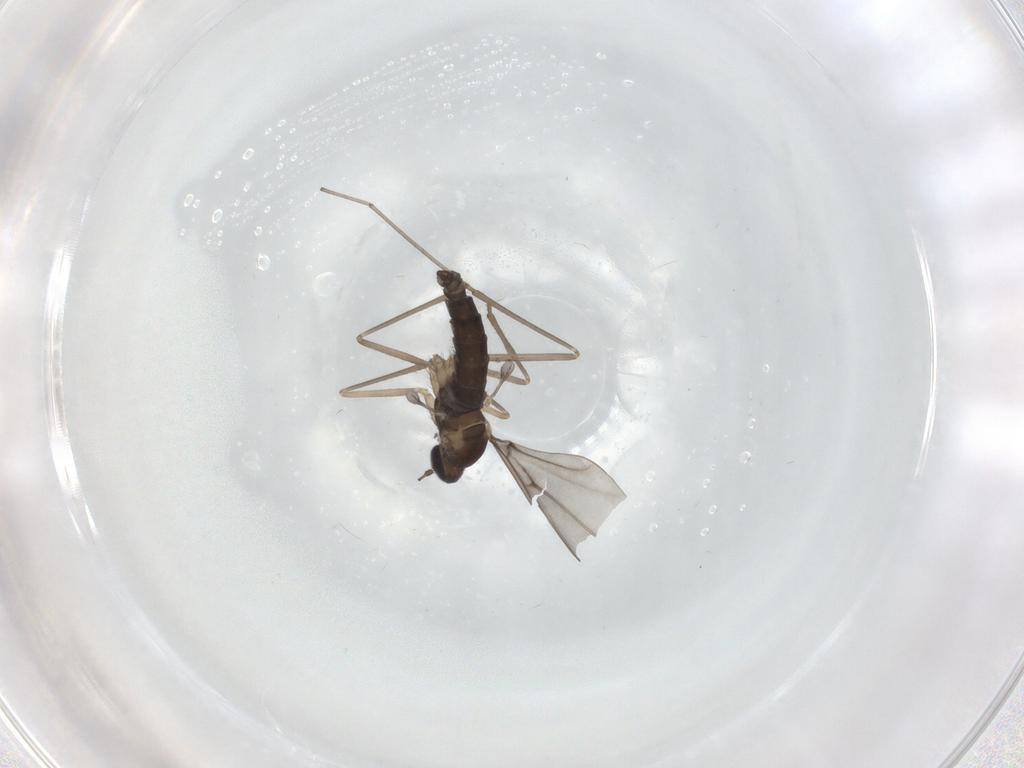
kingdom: Animalia
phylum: Arthropoda
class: Insecta
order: Diptera
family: Cecidomyiidae
